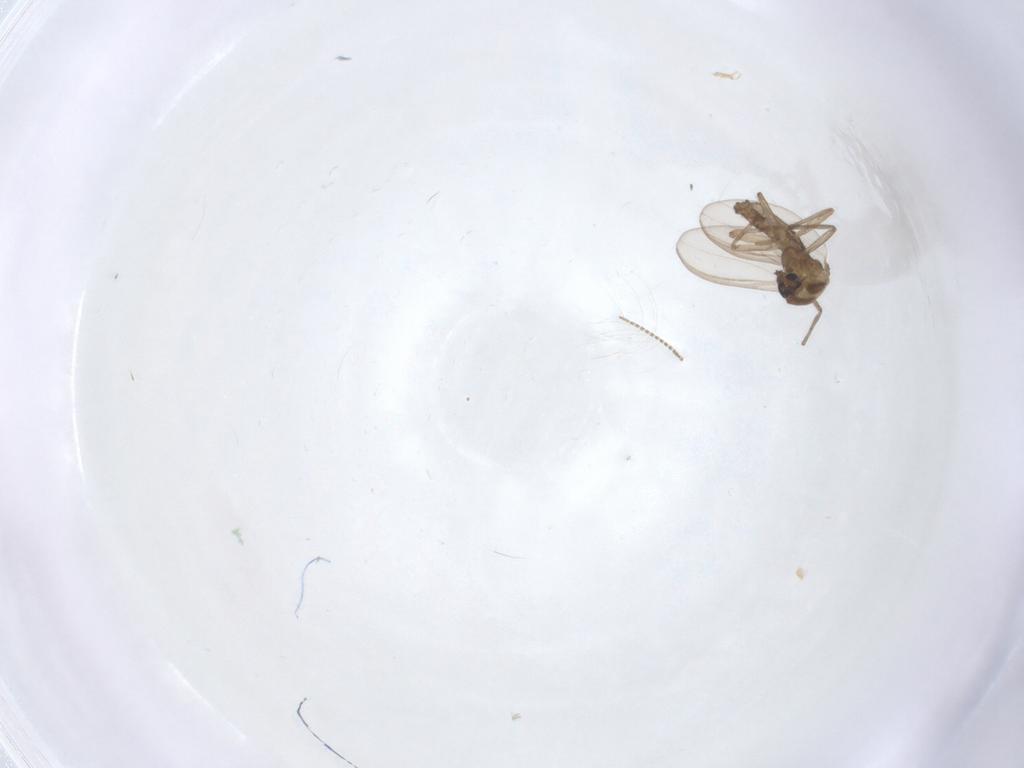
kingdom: Animalia
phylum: Arthropoda
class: Insecta
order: Diptera
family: Chironomidae
